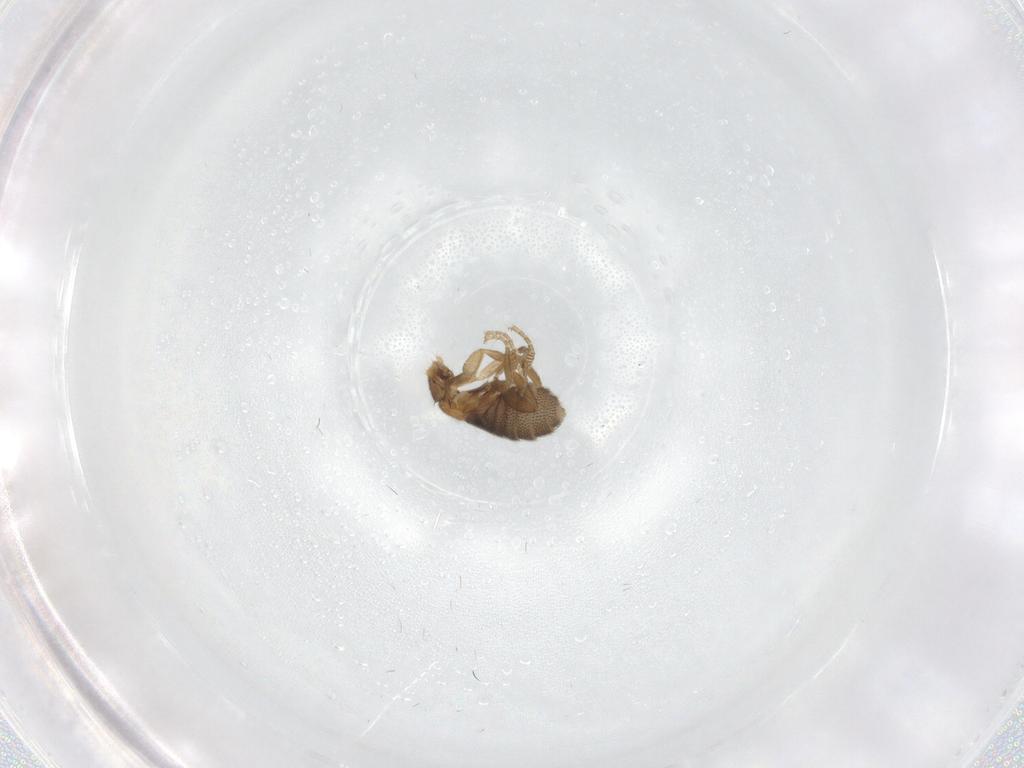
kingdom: Animalia
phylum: Arthropoda
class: Insecta
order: Diptera
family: Phoridae
